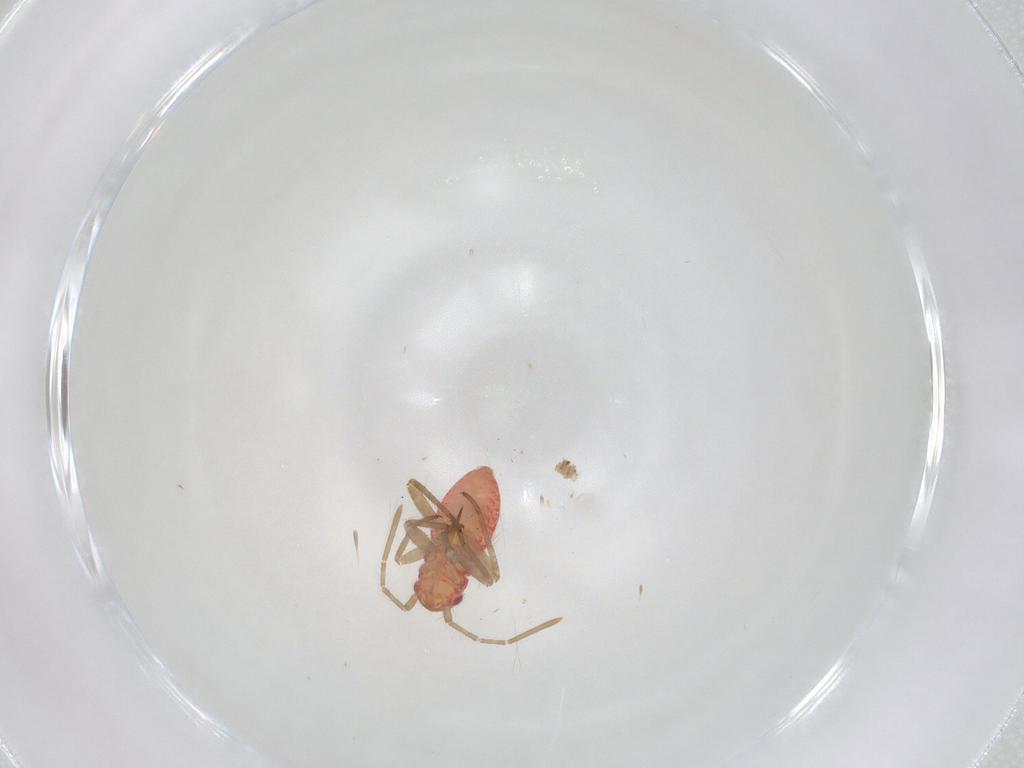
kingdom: Animalia
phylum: Arthropoda
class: Insecta
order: Hemiptera
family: Miridae
